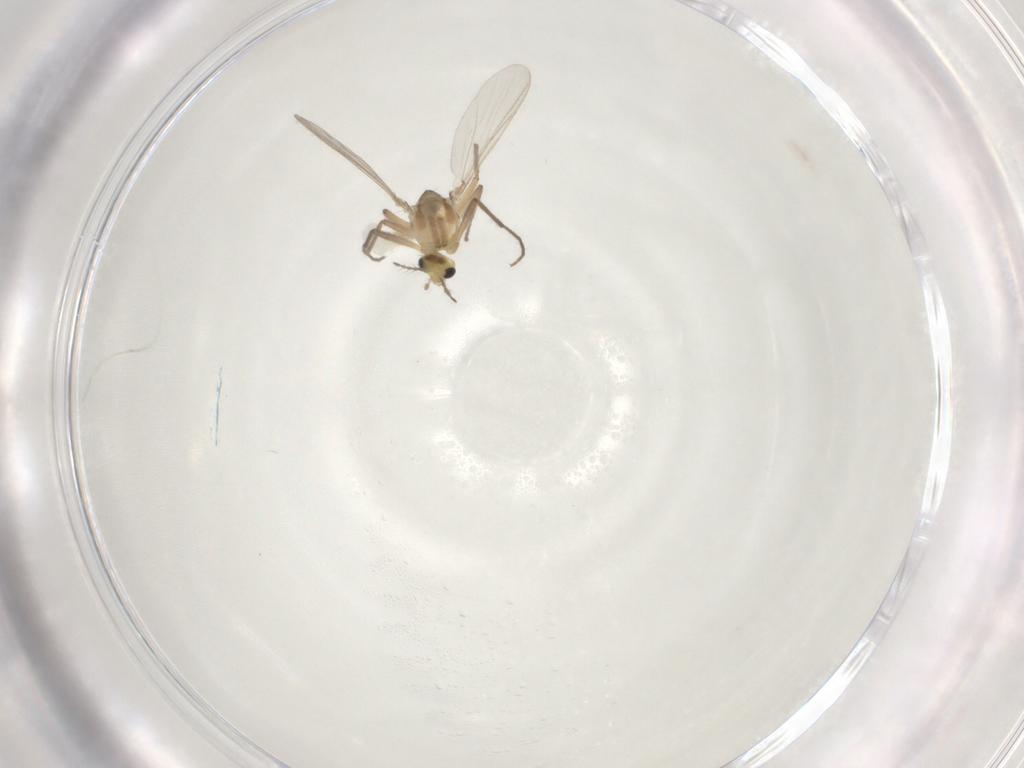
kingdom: Animalia
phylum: Arthropoda
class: Insecta
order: Diptera
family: Chironomidae
